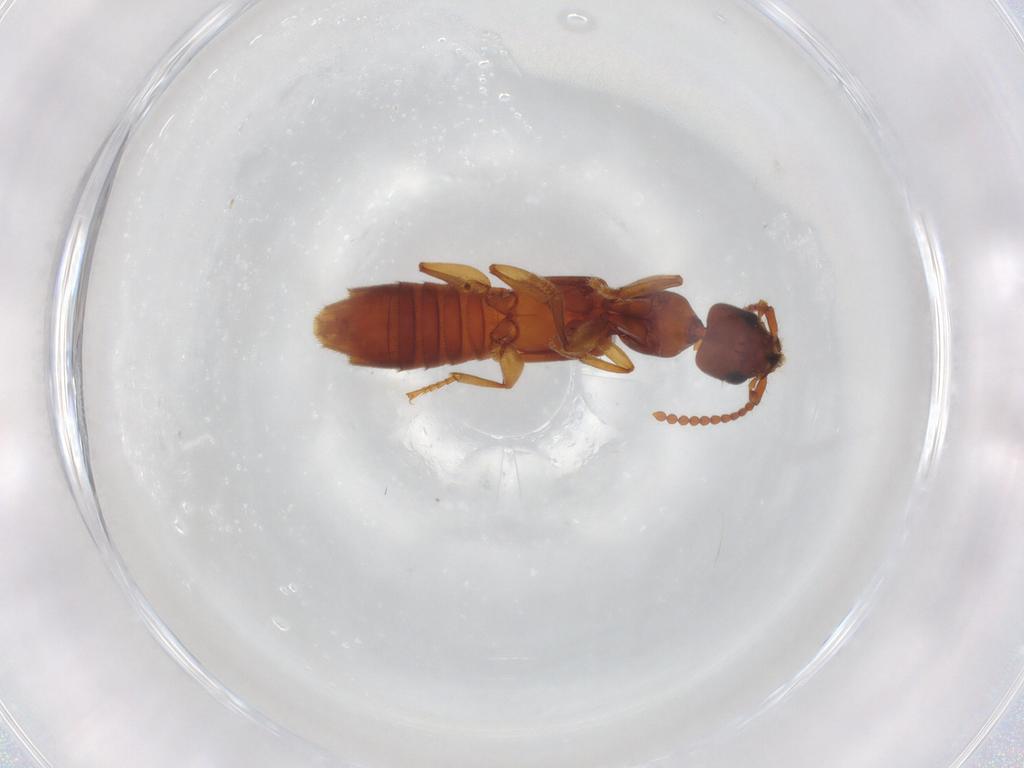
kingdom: Animalia
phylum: Arthropoda
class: Insecta
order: Coleoptera
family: Staphylinidae
